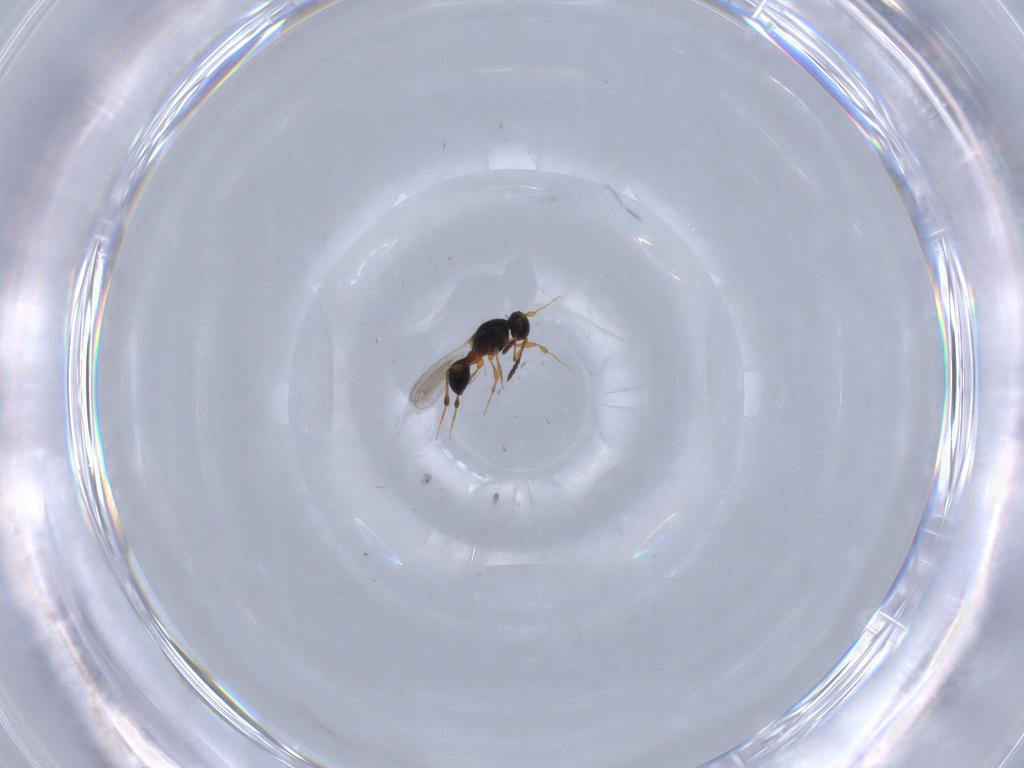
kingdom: Animalia
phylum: Arthropoda
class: Insecta
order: Hymenoptera
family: Platygastridae
